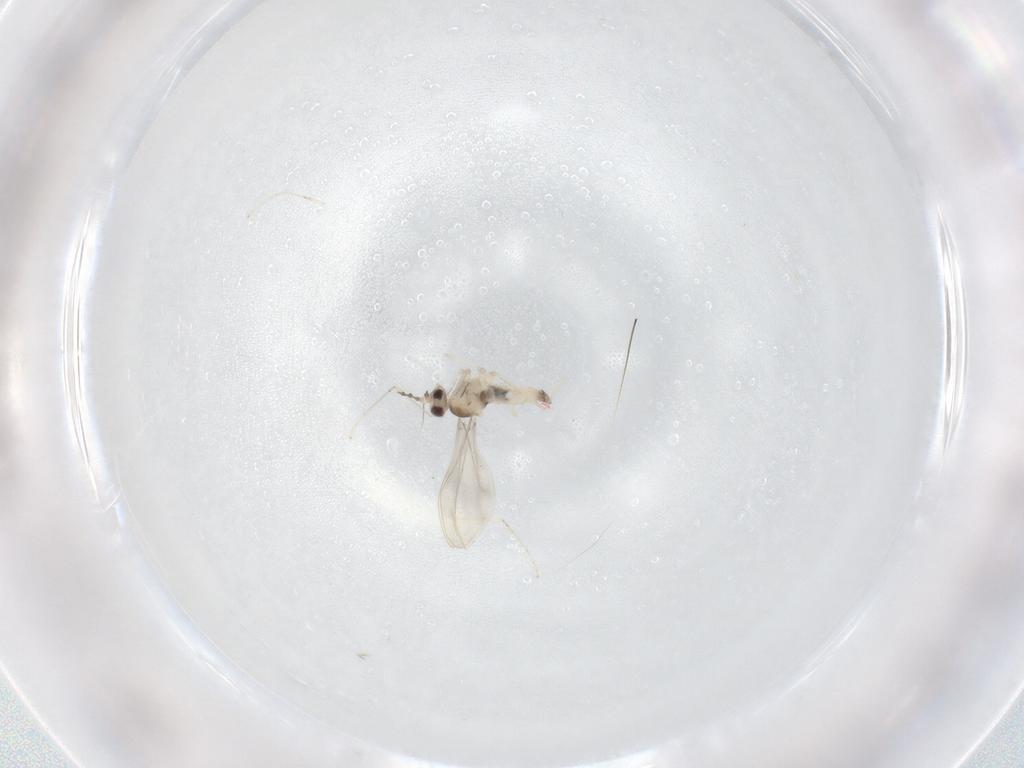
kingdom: Animalia
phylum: Arthropoda
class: Insecta
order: Diptera
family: Cecidomyiidae
